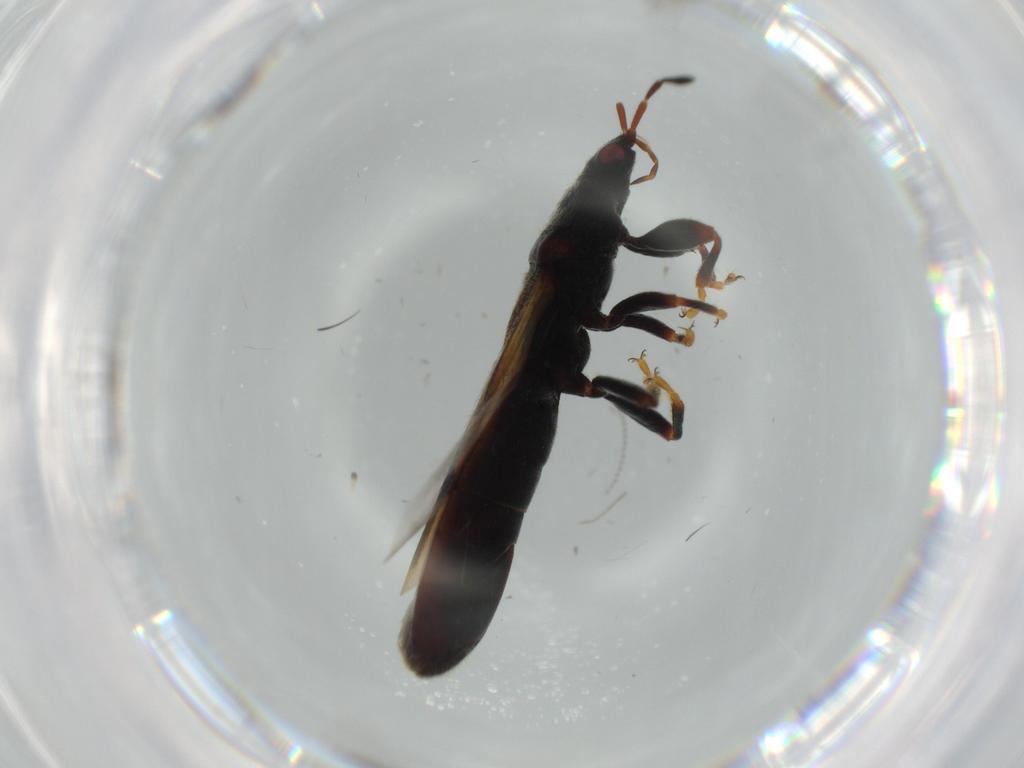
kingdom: Animalia
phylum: Arthropoda
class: Insecta
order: Hemiptera
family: Blissidae
